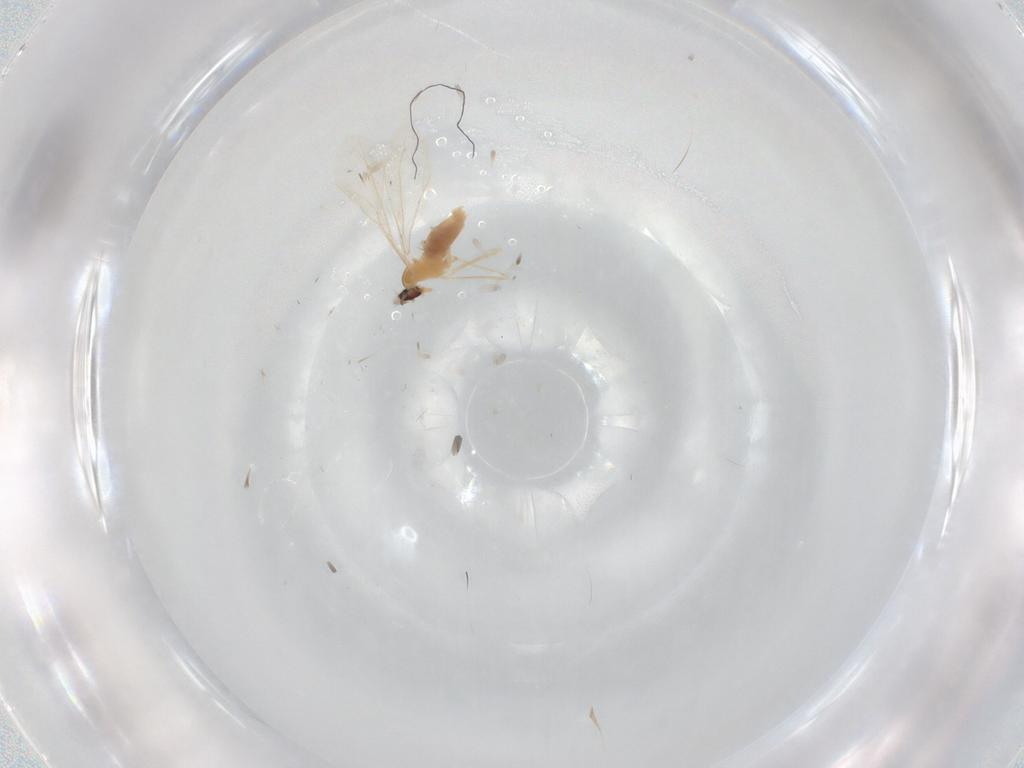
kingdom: Animalia
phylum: Arthropoda
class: Insecta
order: Diptera
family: Cecidomyiidae
